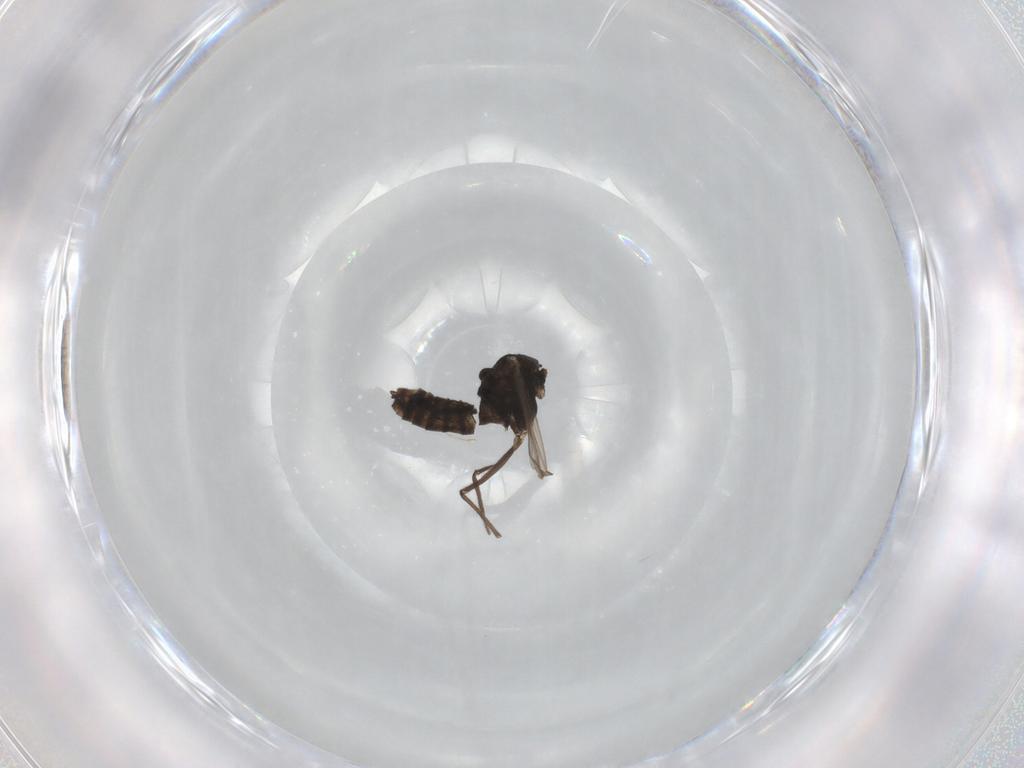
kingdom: Animalia
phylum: Arthropoda
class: Insecta
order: Diptera
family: Chironomidae
